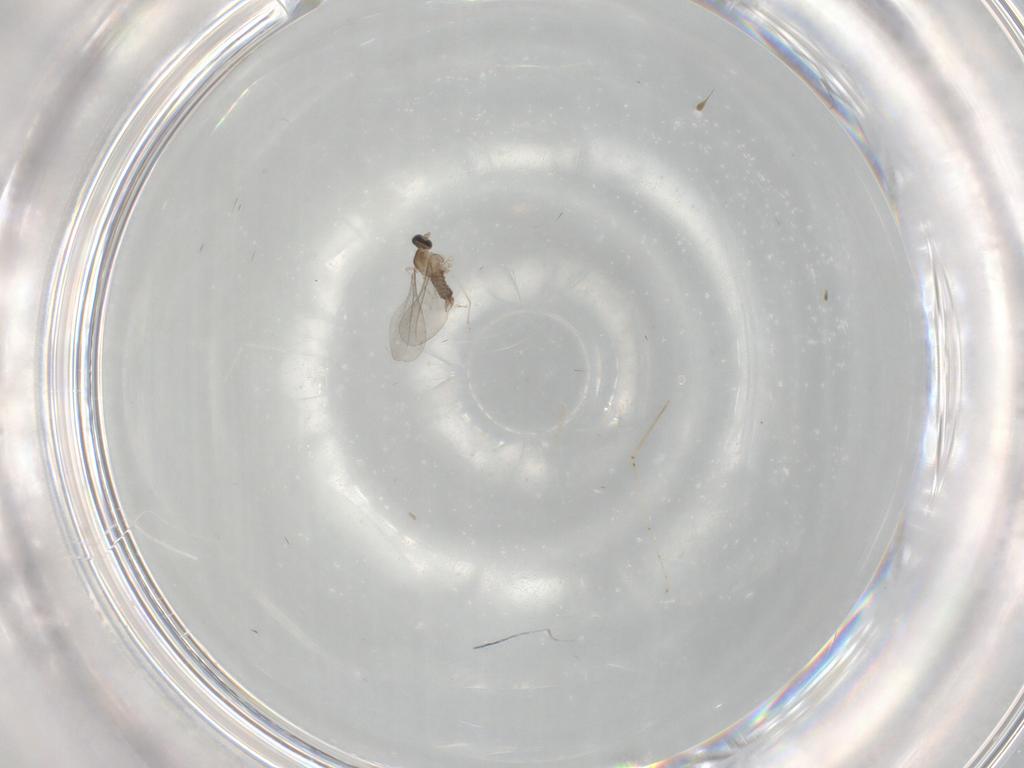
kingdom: Animalia
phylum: Arthropoda
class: Insecta
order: Diptera
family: Cecidomyiidae
